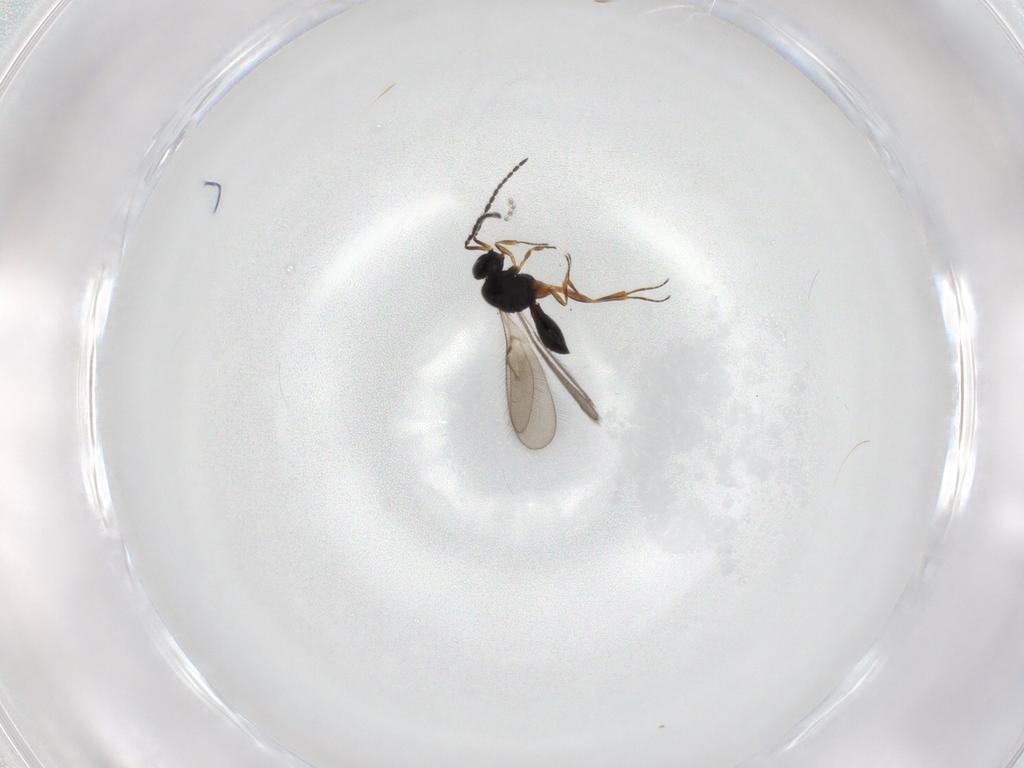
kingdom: Animalia
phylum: Arthropoda
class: Insecta
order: Hymenoptera
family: Scelionidae
